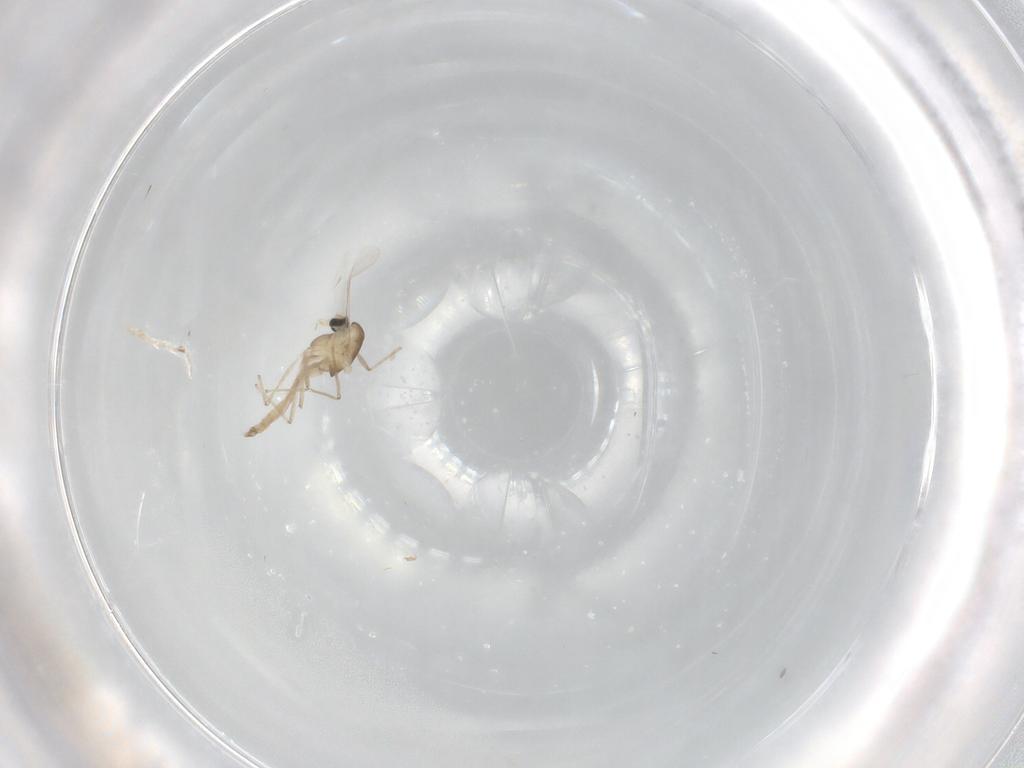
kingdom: Animalia
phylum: Arthropoda
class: Insecta
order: Diptera
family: Chironomidae
